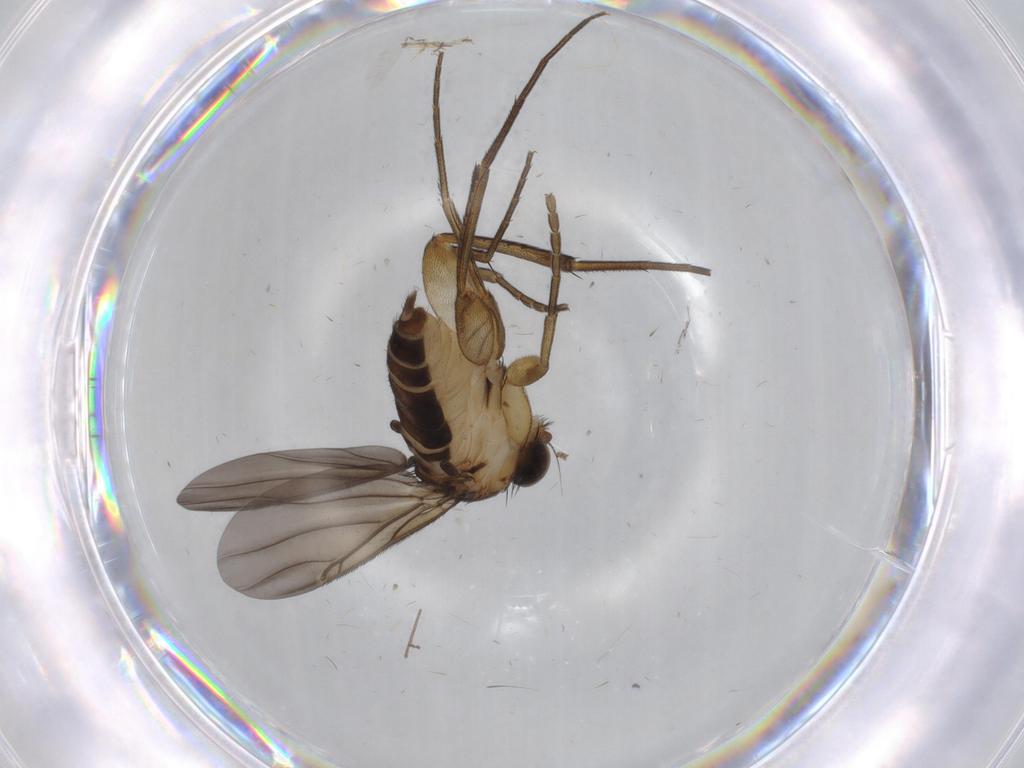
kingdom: Animalia
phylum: Arthropoda
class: Insecta
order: Diptera
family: Phoridae
